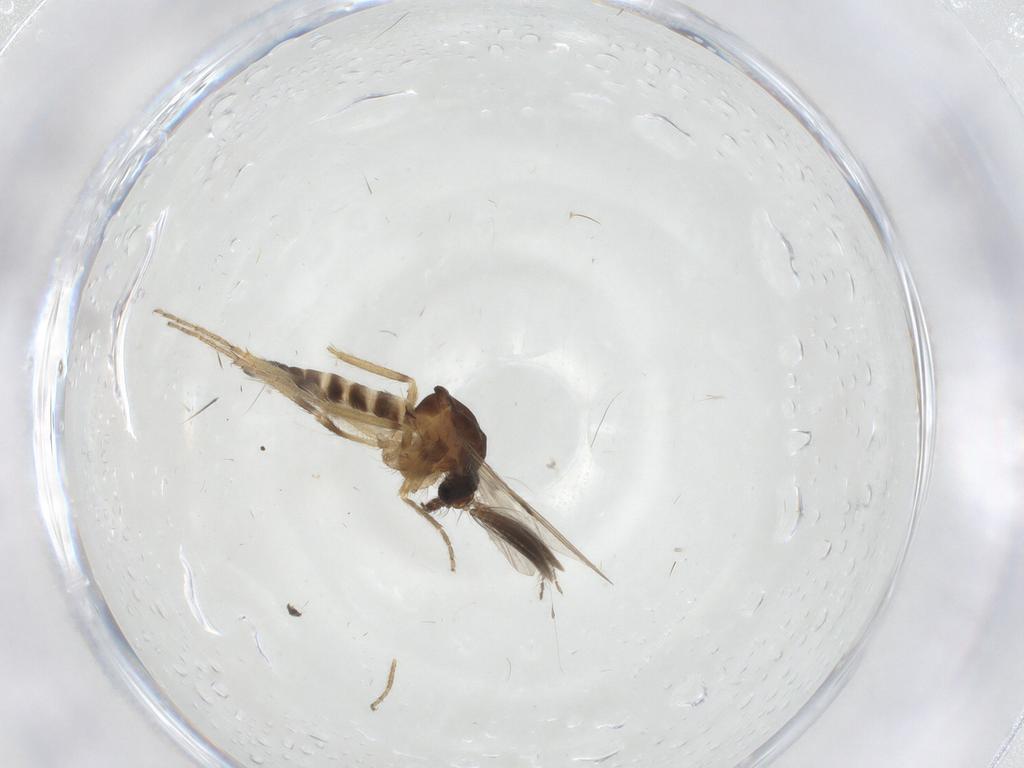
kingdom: Animalia
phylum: Arthropoda
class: Insecta
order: Diptera
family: Ceratopogonidae
